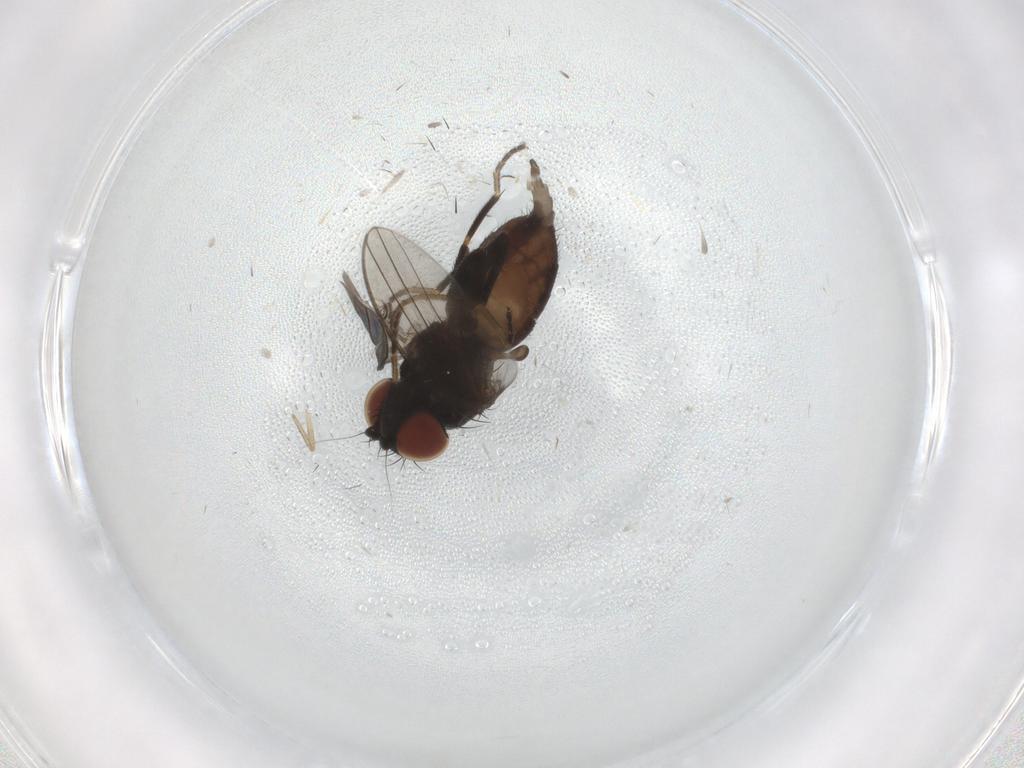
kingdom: Animalia
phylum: Arthropoda
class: Insecta
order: Diptera
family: Milichiidae
